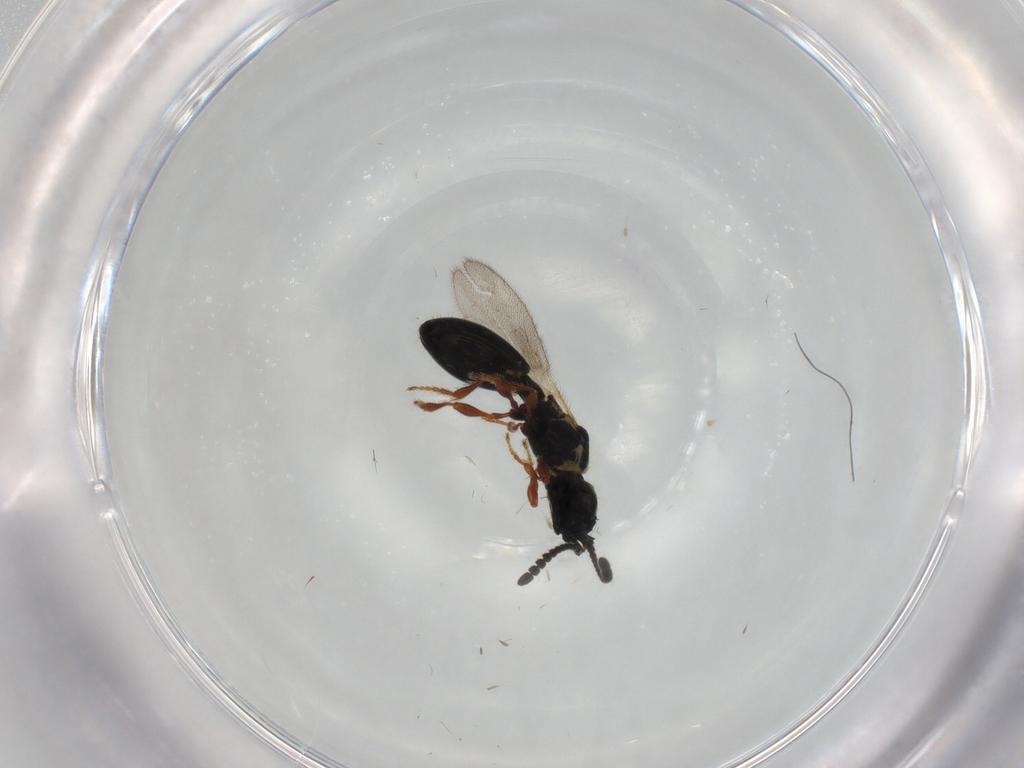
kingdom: Animalia
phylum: Arthropoda
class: Insecta
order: Hymenoptera
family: Diapriidae
